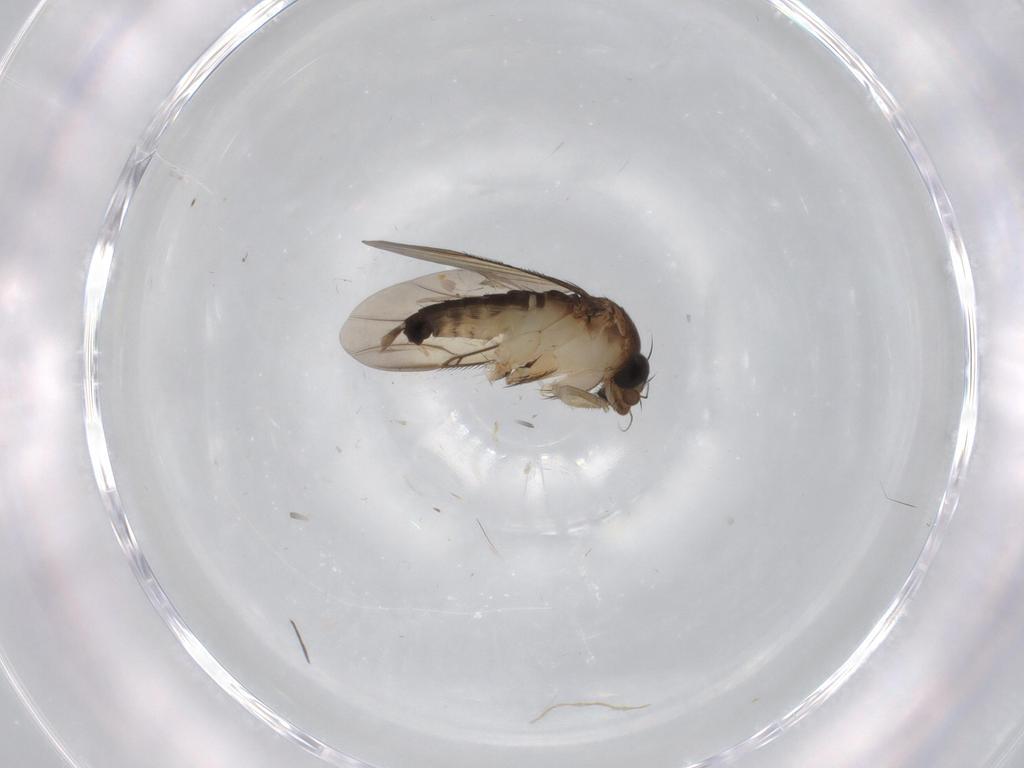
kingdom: Animalia
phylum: Arthropoda
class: Insecta
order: Diptera
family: Phoridae
